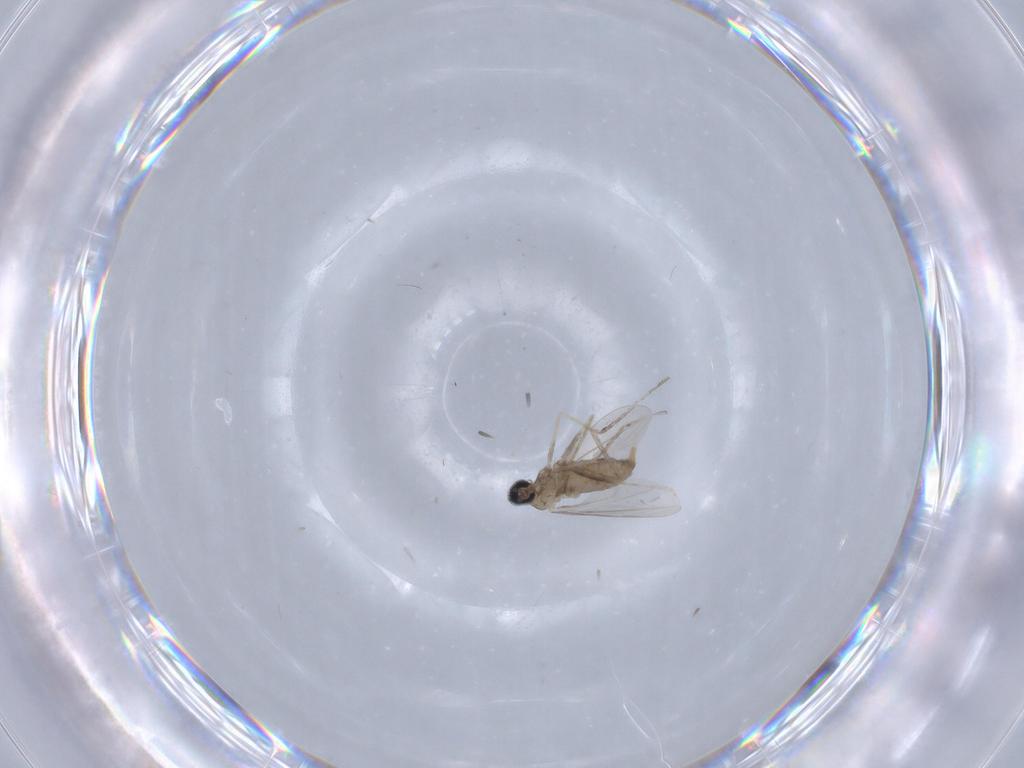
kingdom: Animalia
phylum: Arthropoda
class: Insecta
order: Diptera
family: Cecidomyiidae
